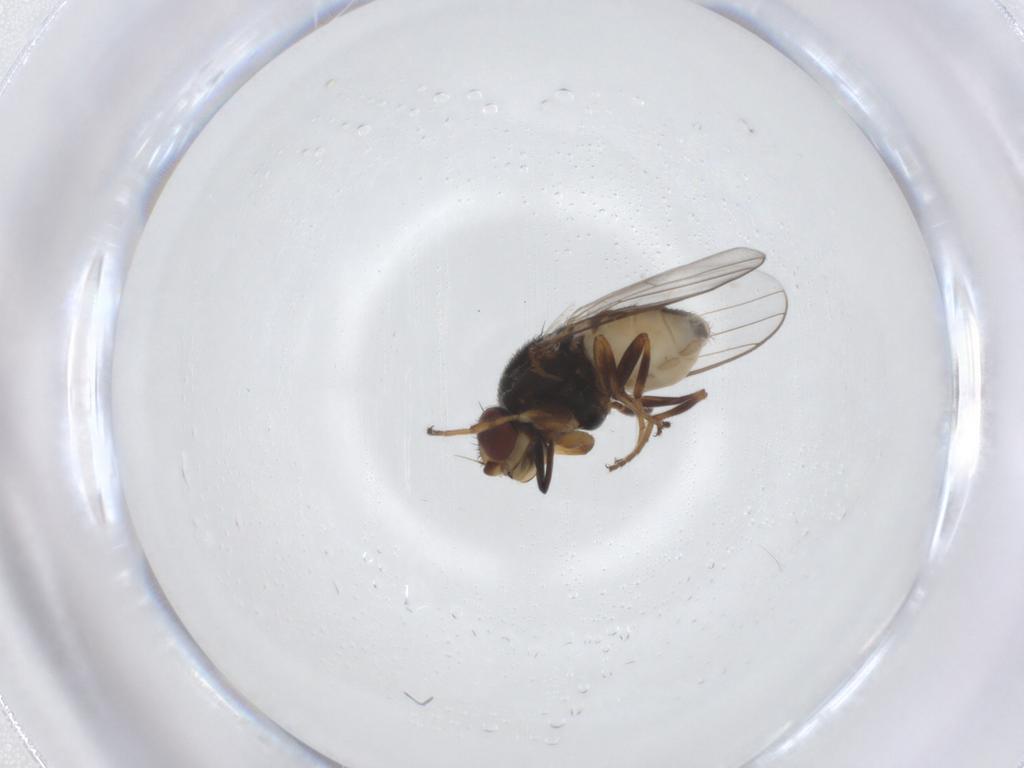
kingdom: Animalia
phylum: Arthropoda
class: Insecta
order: Diptera
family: Chloropidae
